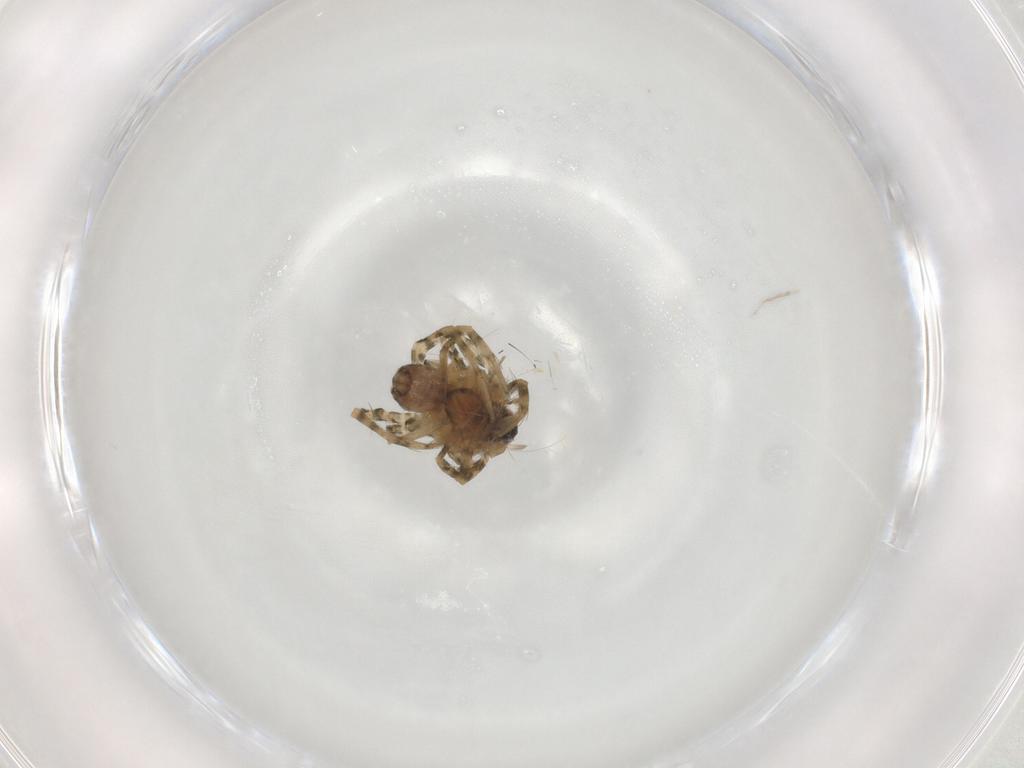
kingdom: Animalia
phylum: Arthropoda
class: Arachnida
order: Araneae
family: Lycosidae
